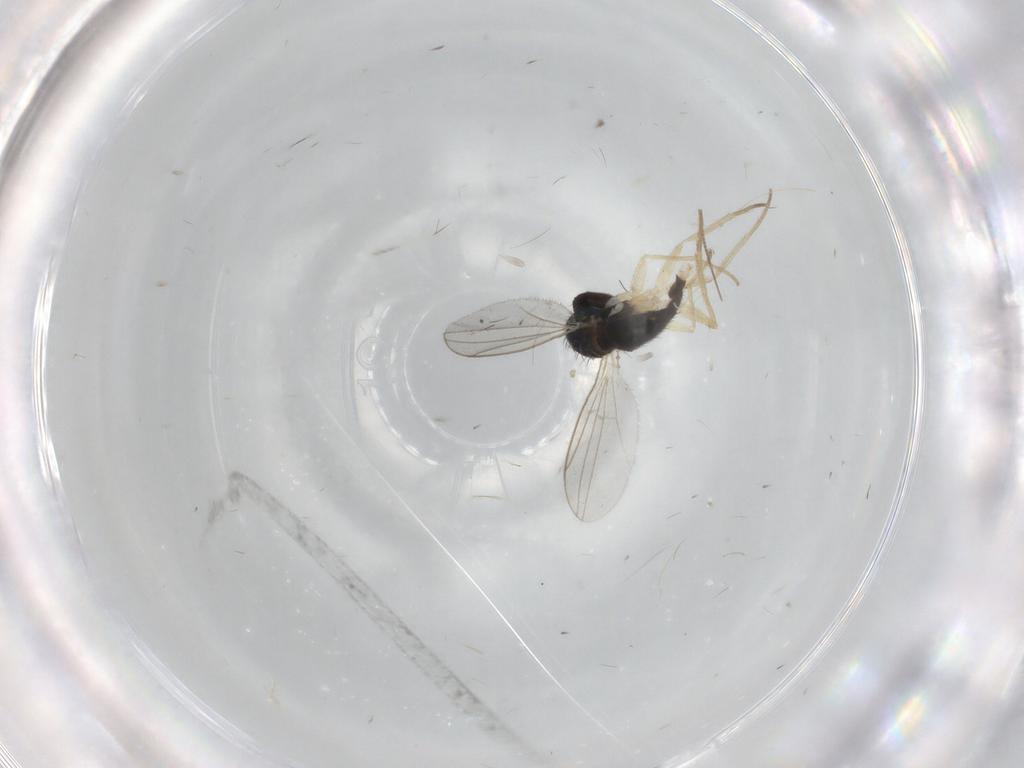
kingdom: Animalia
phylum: Arthropoda
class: Insecta
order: Diptera
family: Dolichopodidae
